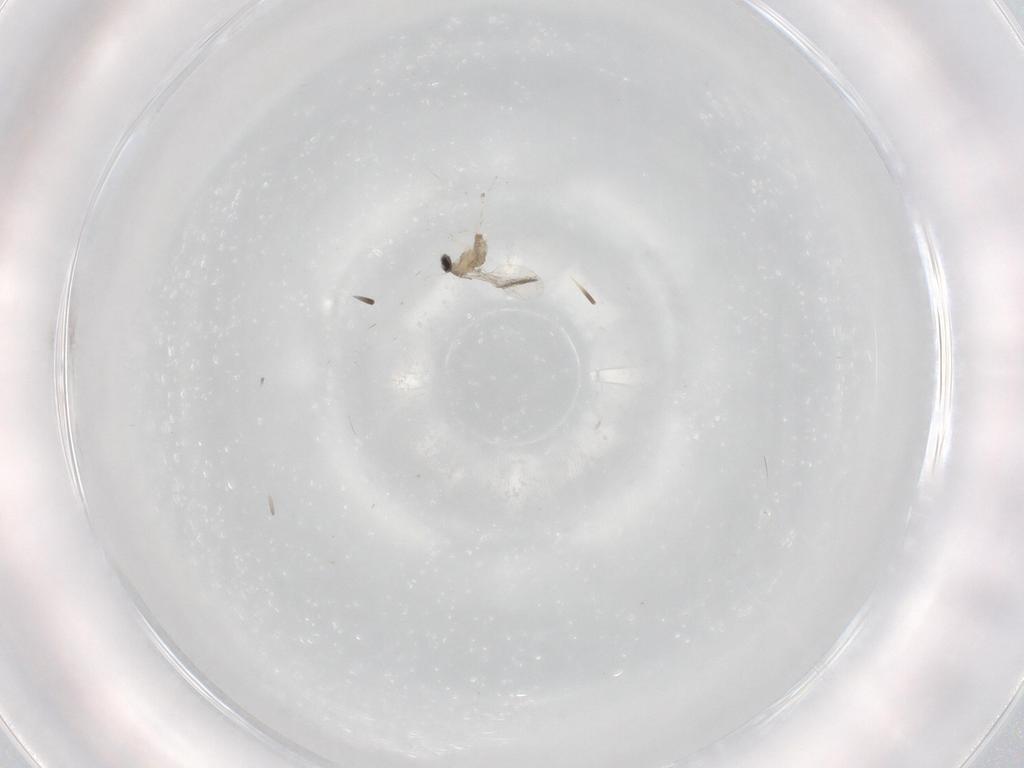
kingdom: Animalia
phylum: Arthropoda
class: Insecta
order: Diptera
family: Cecidomyiidae
